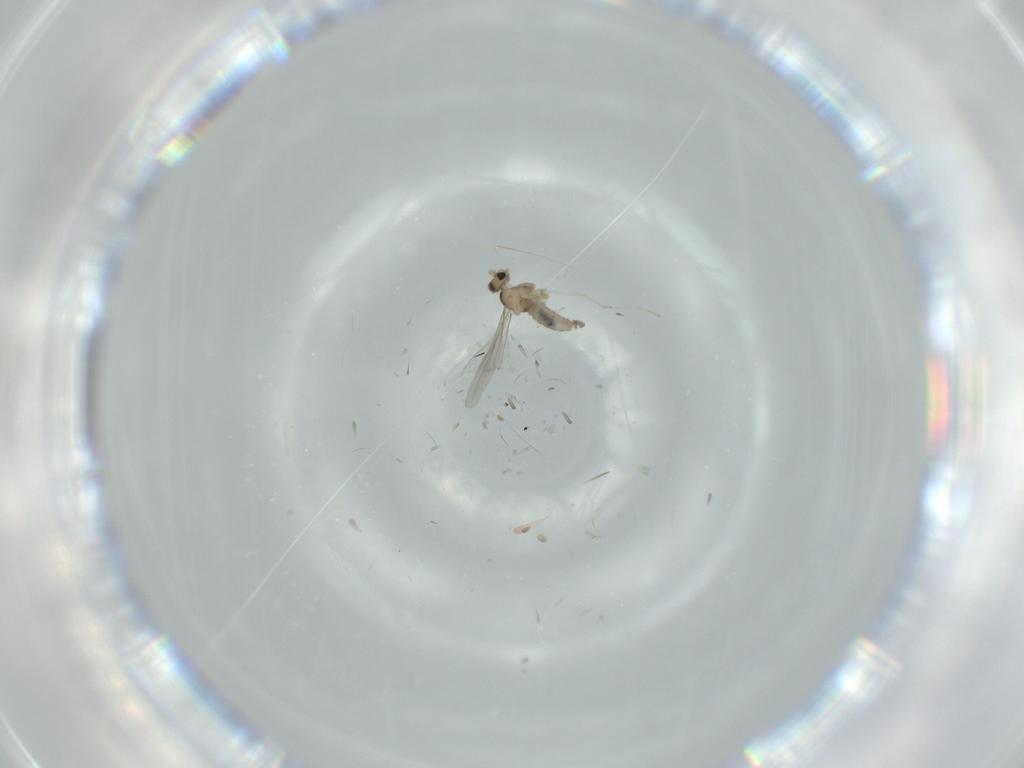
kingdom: Animalia
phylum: Arthropoda
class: Insecta
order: Diptera
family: Cecidomyiidae
